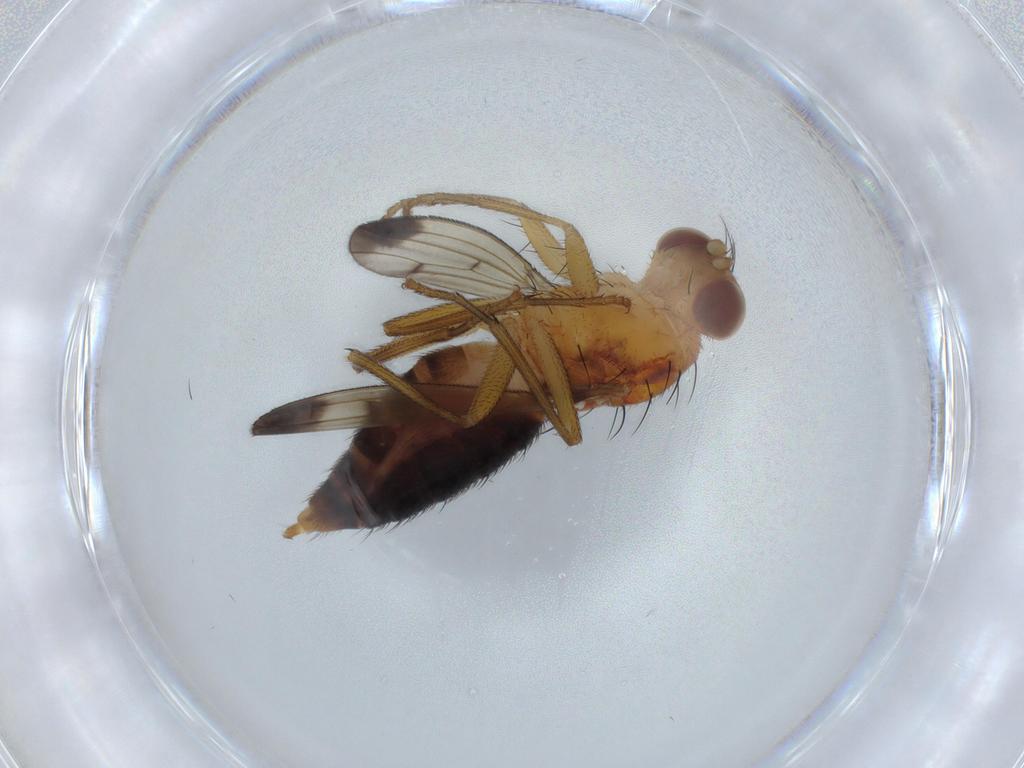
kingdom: Animalia
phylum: Arthropoda
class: Insecta
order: Diptera
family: Opomyzidae
